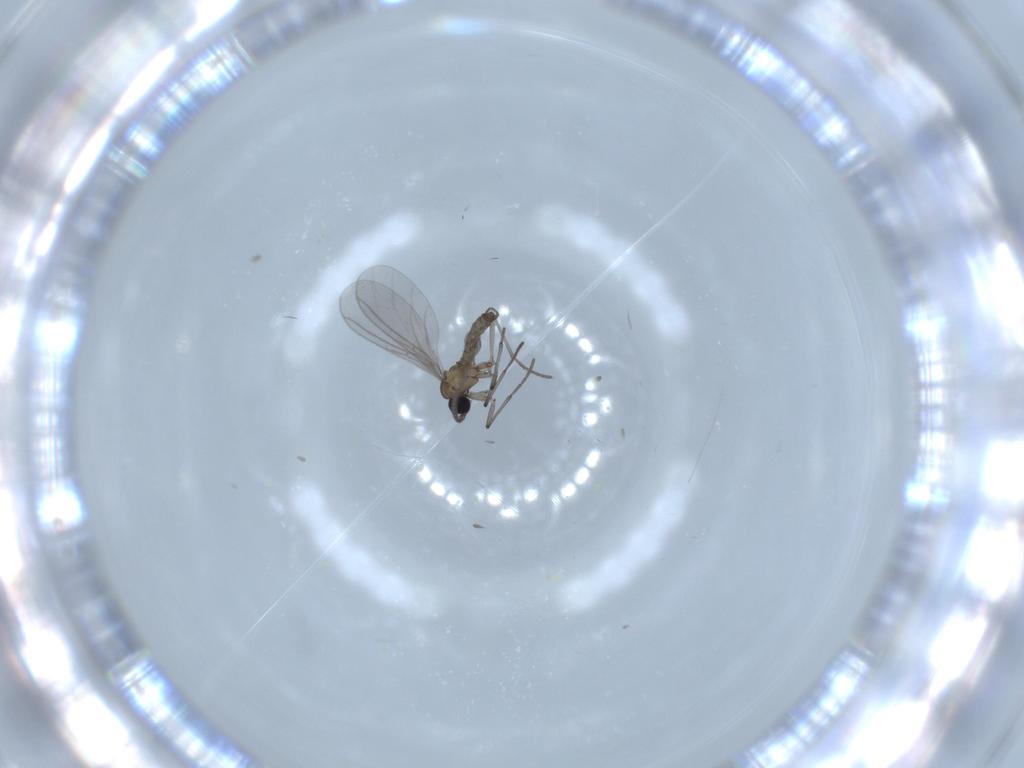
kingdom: Animalia
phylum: Arthropoda
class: Insecta
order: Diptera
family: Sciaridae
